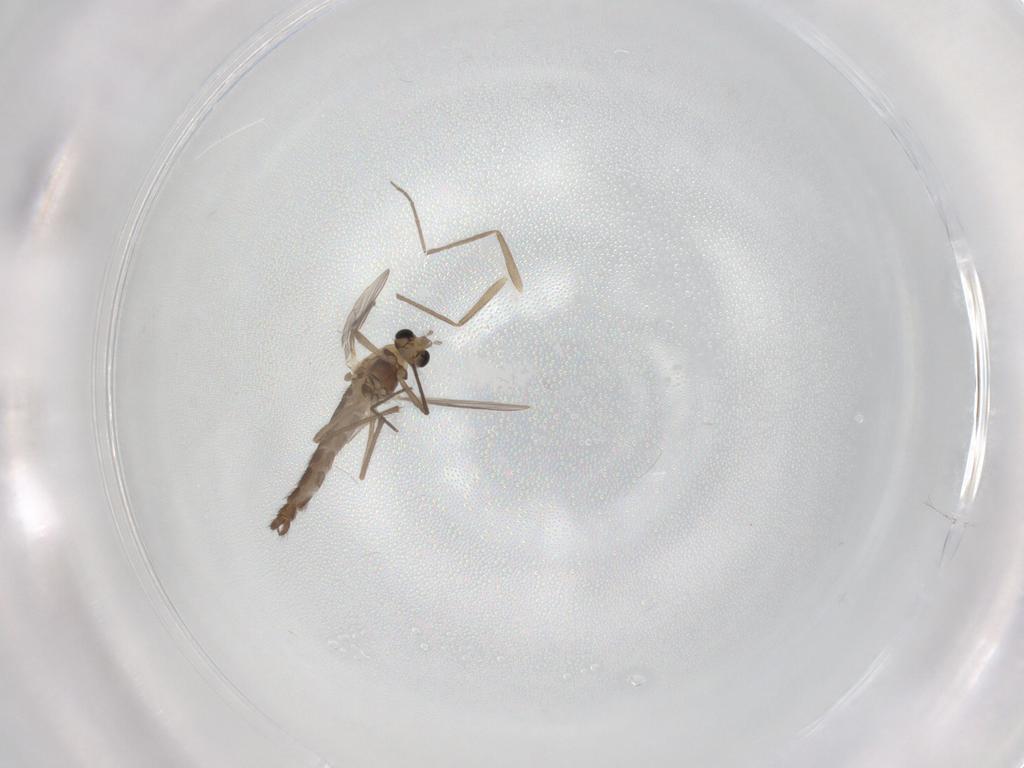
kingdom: Animalia
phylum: Arthropoda
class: Insecta
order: Diptera
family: Chironomidae
